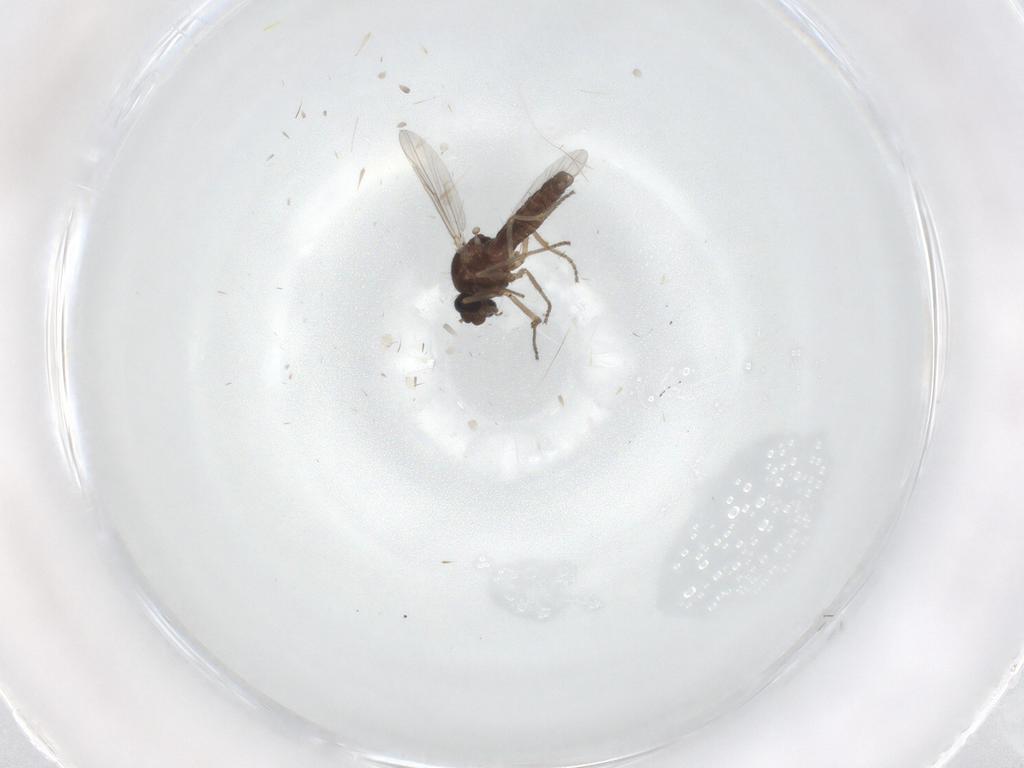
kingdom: Animalia
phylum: Arthropoda
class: Insecta
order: Diptera
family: Ceratopogonidae
